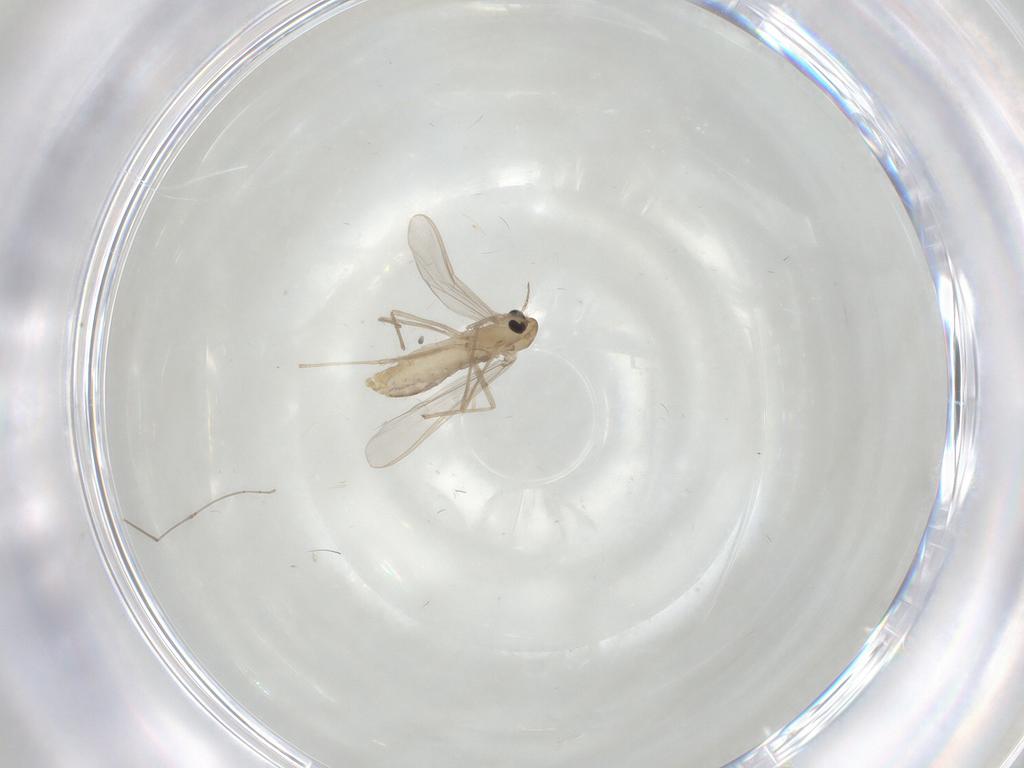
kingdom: Animalia
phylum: Arthropoda
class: Insecta
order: Diptera
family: Chironomidae
